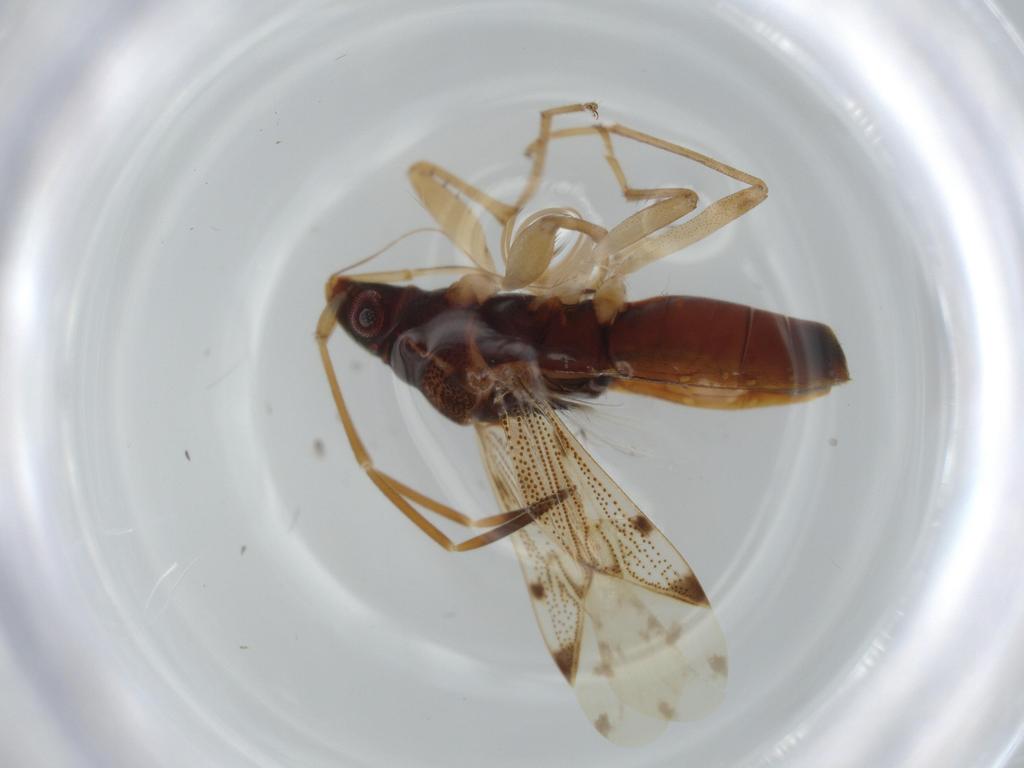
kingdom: Animalia
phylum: Arthropoda
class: Insecta
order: Hemiptera
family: Rhyparochromidae
